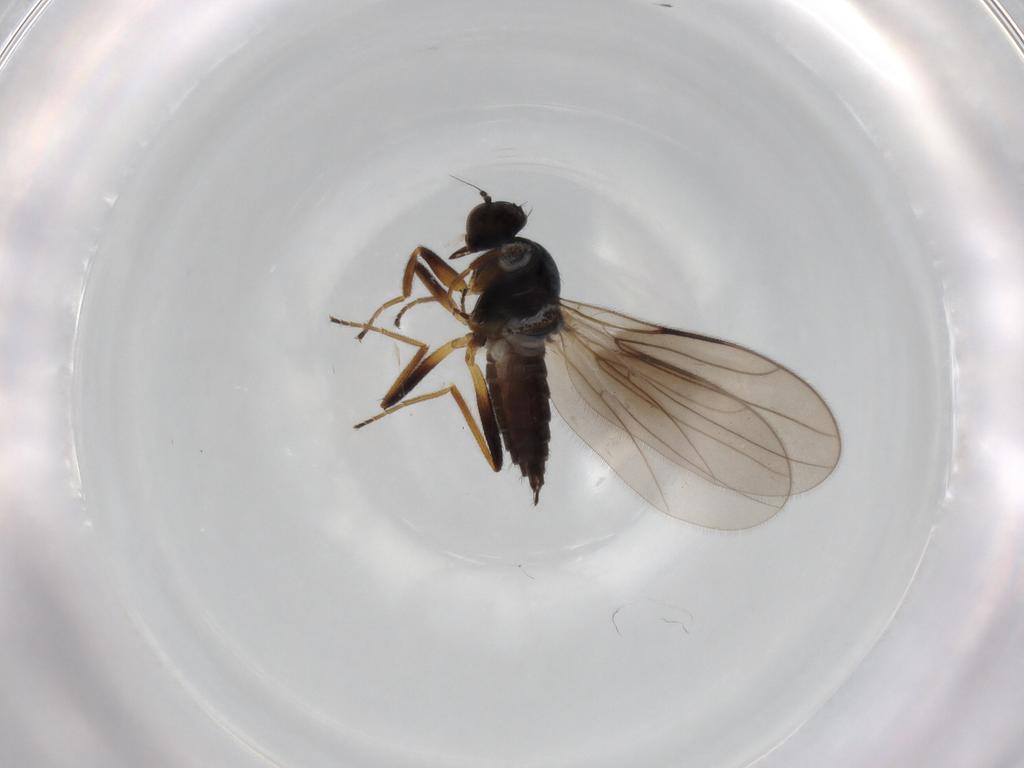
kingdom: Animalia
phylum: Arthropoda
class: Insecta
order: Diptera
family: Hybotidae
